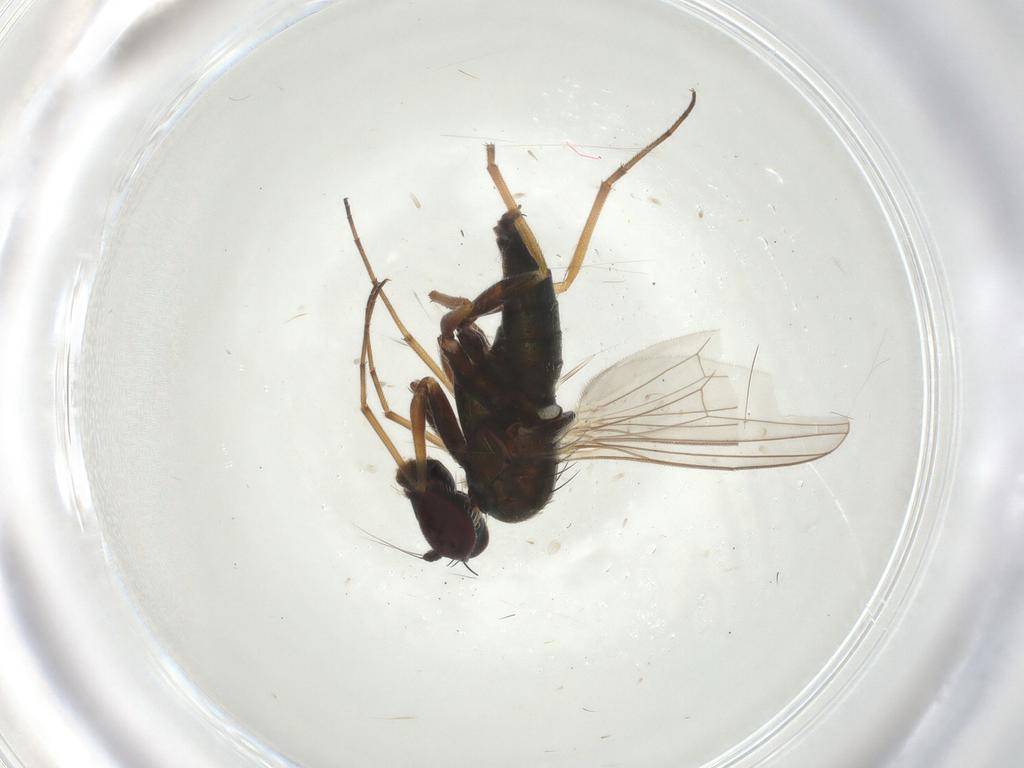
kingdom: Animalia
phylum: Arthropoda
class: Insecta
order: Diptera
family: Dolichopodidae
